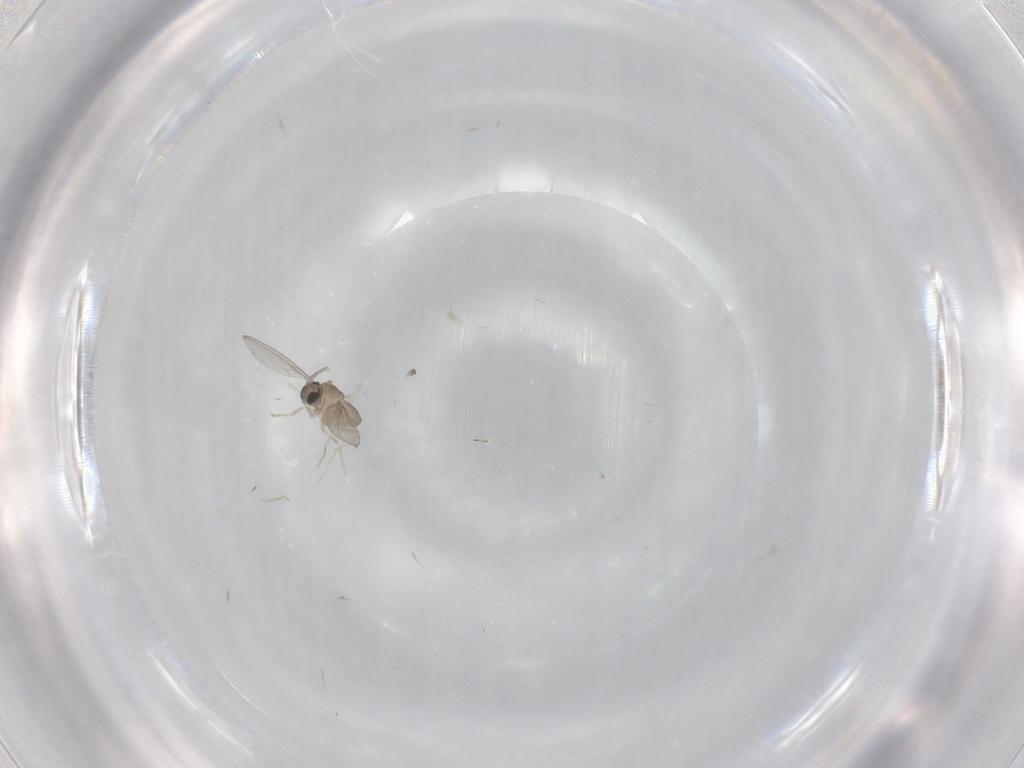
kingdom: Animalia
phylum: Arthropoda
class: Insecta
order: Diptera
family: Cecidomyiidae
